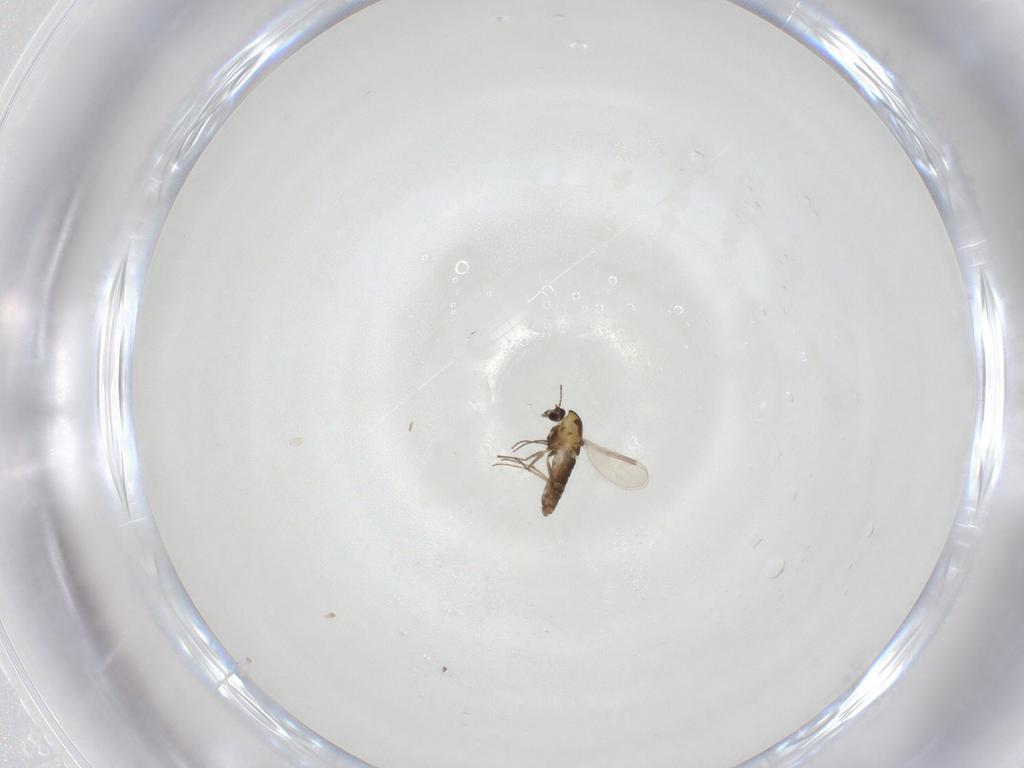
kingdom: Animalia
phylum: Arthropoda
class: Insecta
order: Diptera
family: Chironomidae
